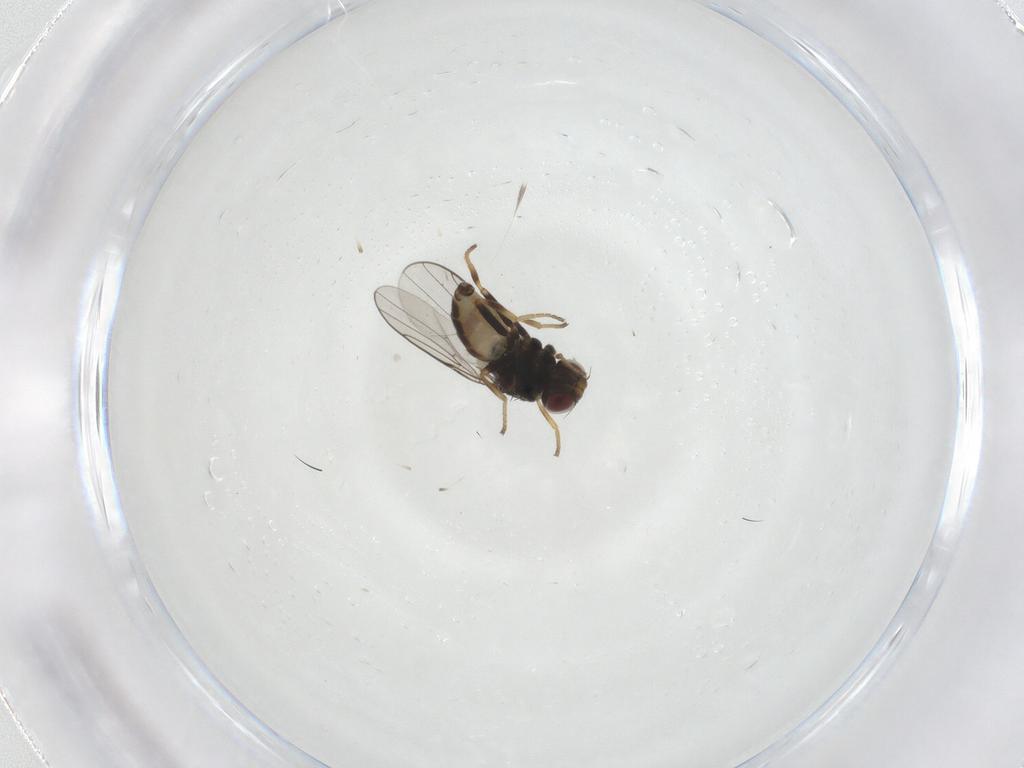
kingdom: Animalia
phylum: Arthropoda
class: Insecta
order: Diptera
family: Chloropidae
